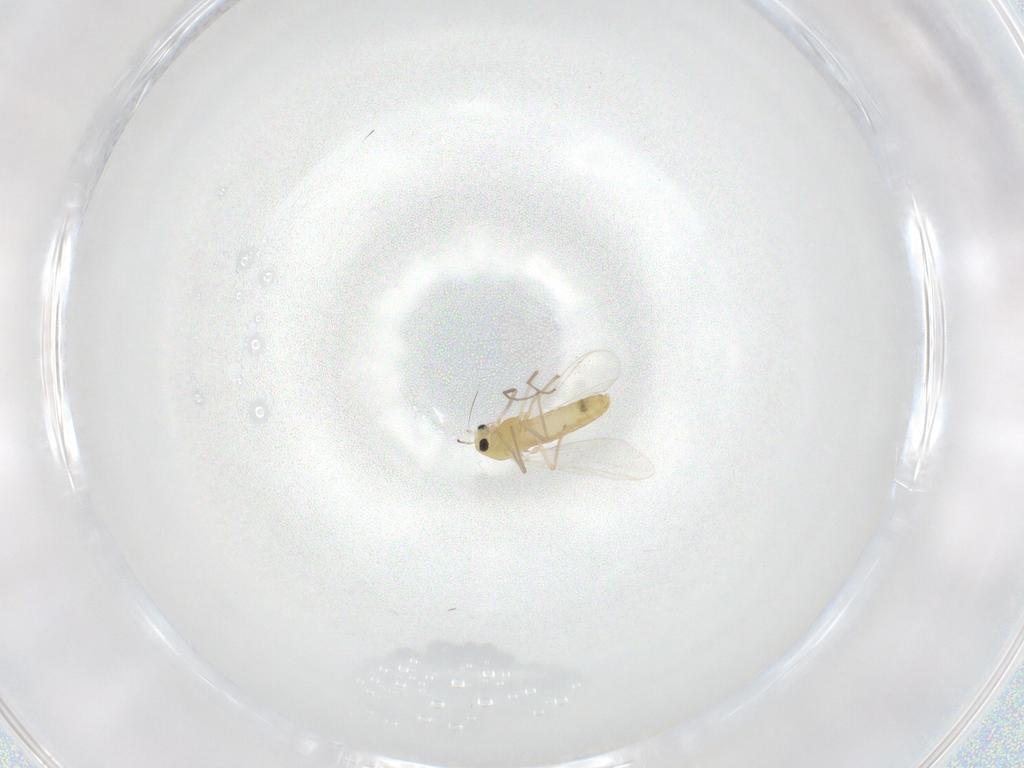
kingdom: Animalia
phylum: Arthropoda
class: Insecta
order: Diptera
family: Chironomidae
